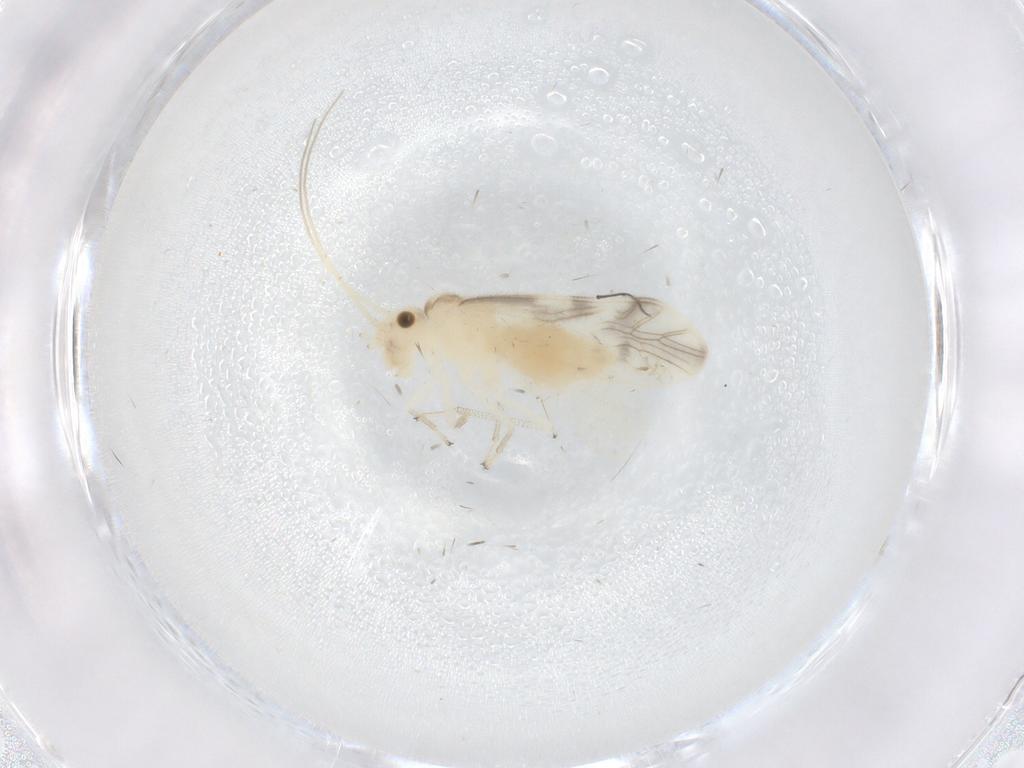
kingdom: Animalia
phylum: Arthropoda
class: Insecta
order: Psocodea
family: Caeciliusidae
